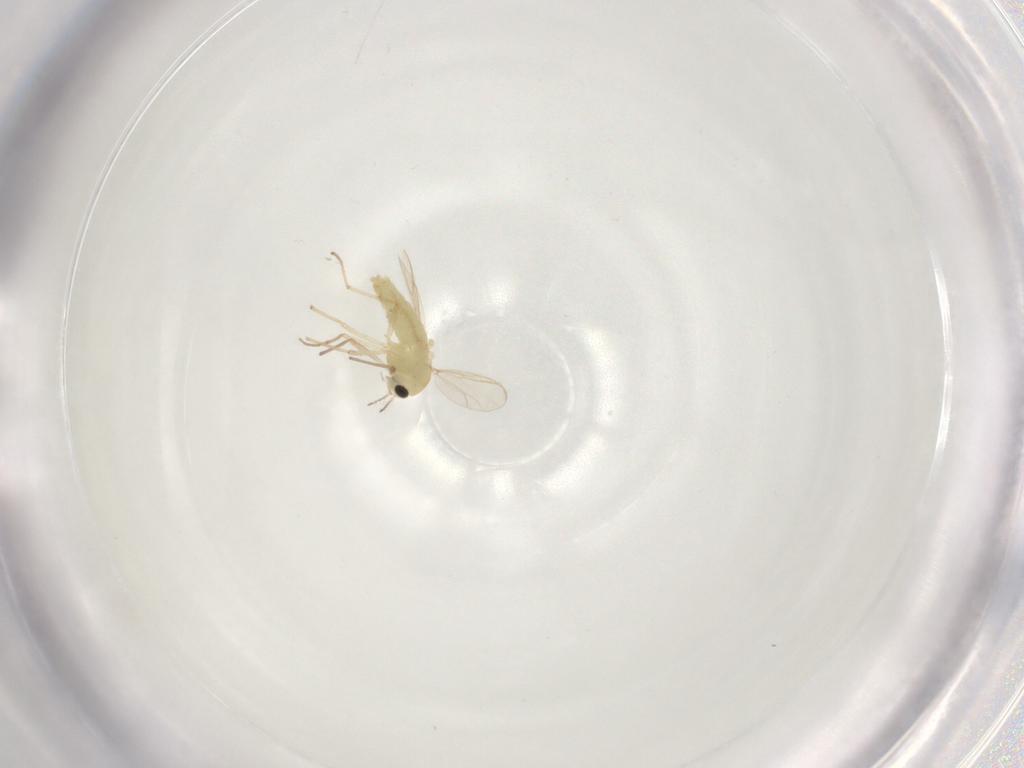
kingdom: Animalia
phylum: Arthropoda
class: Insecta
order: Diptera
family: Chironomidae
